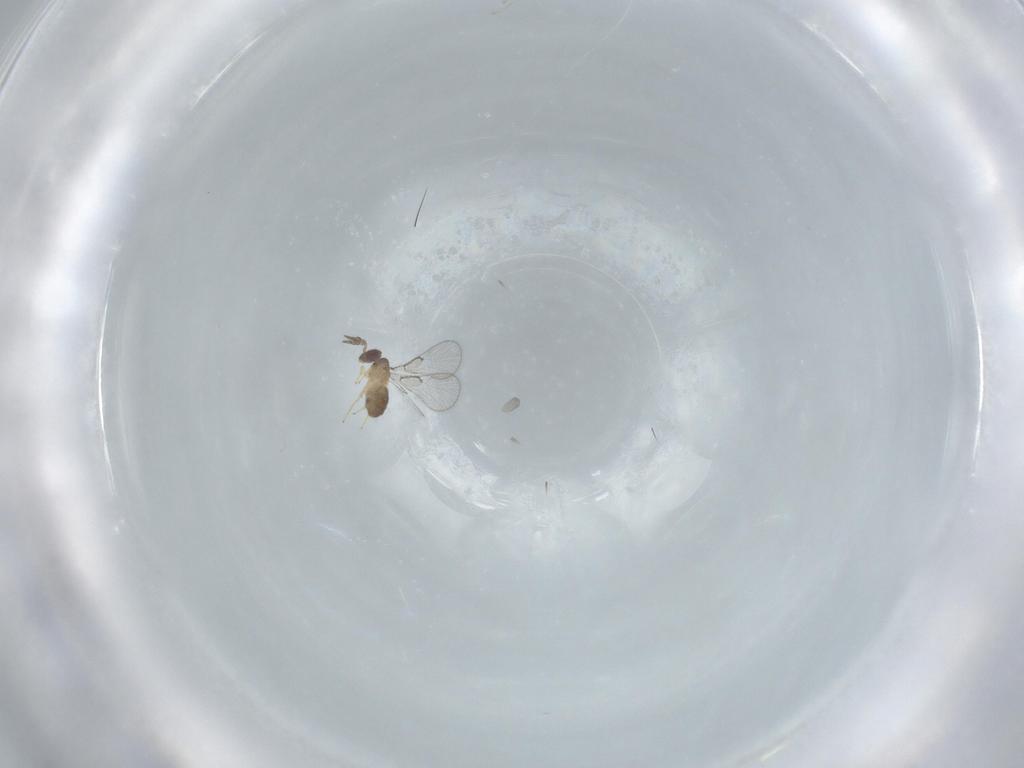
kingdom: Animalia
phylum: Arthropoda
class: Insecta
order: Hymenoptera
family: Trichogrammatidae
